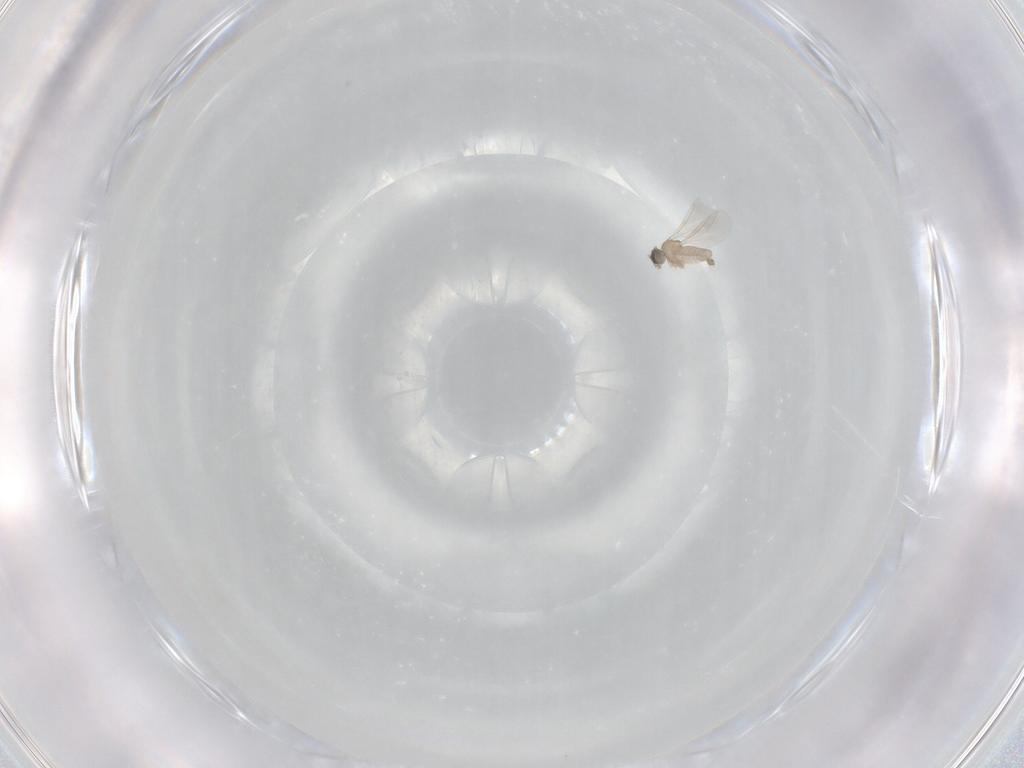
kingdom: Animalia
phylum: Arthropoda
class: Insecta
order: Diptera
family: Cecidomyiidae
